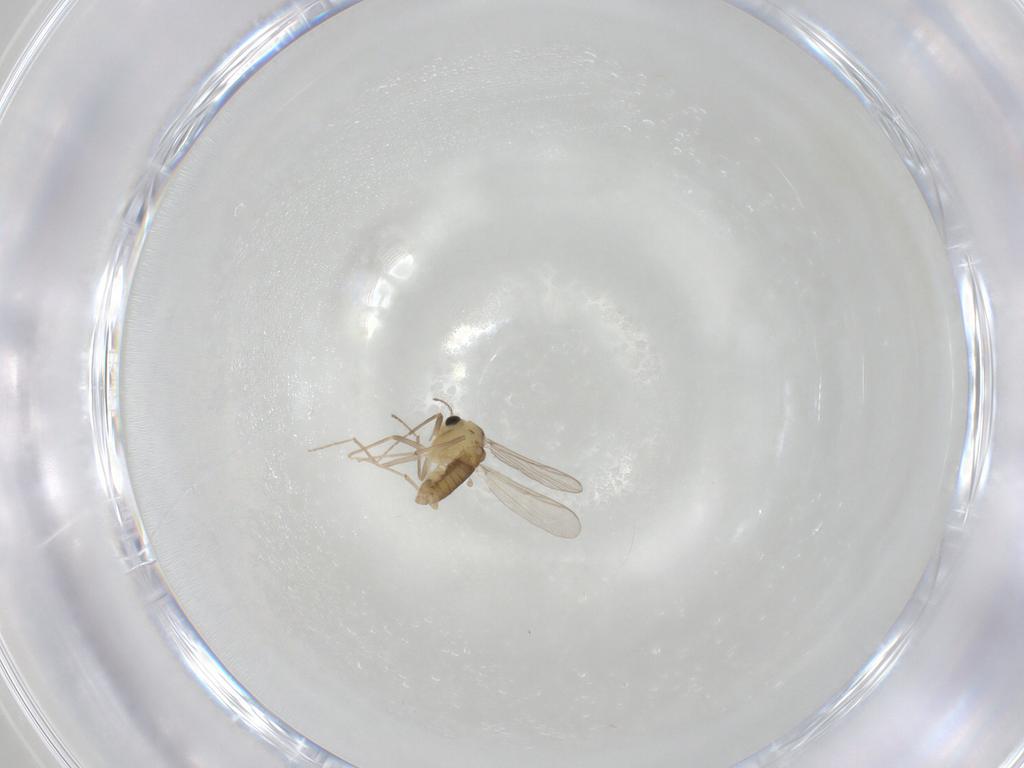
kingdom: Animalia
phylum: Arthropoda
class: Insecta
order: Diptera
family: Chironomidae
